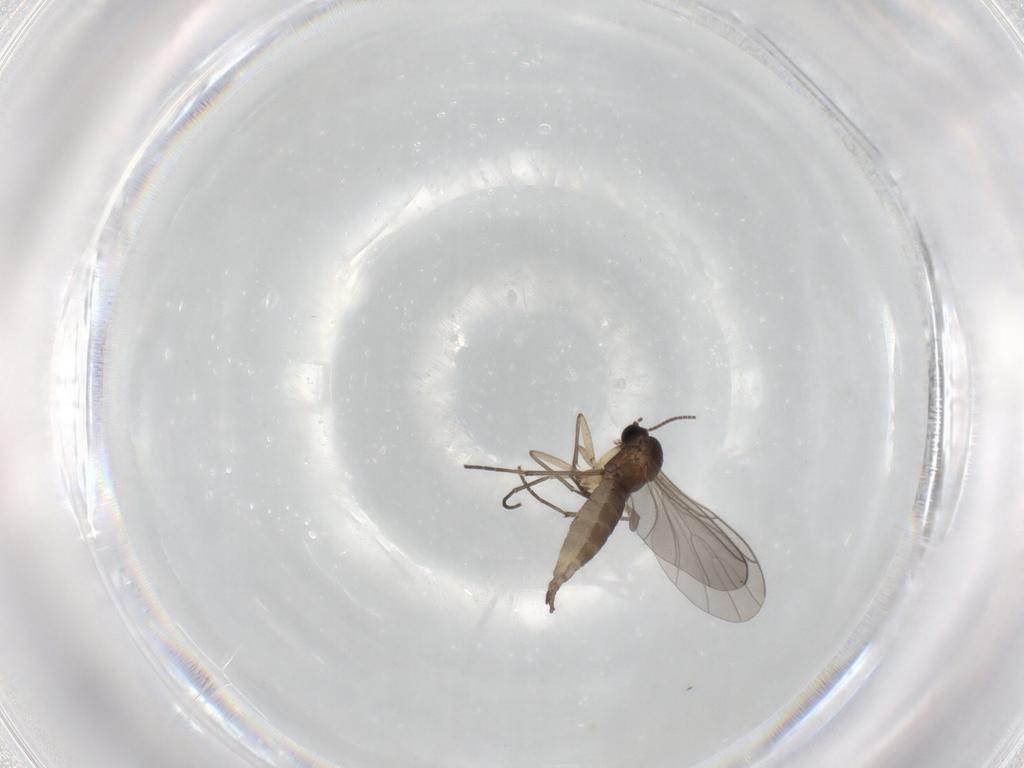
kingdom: Animalia
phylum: Arthropoda
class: Insecta
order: Diptera
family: Sciaridae
